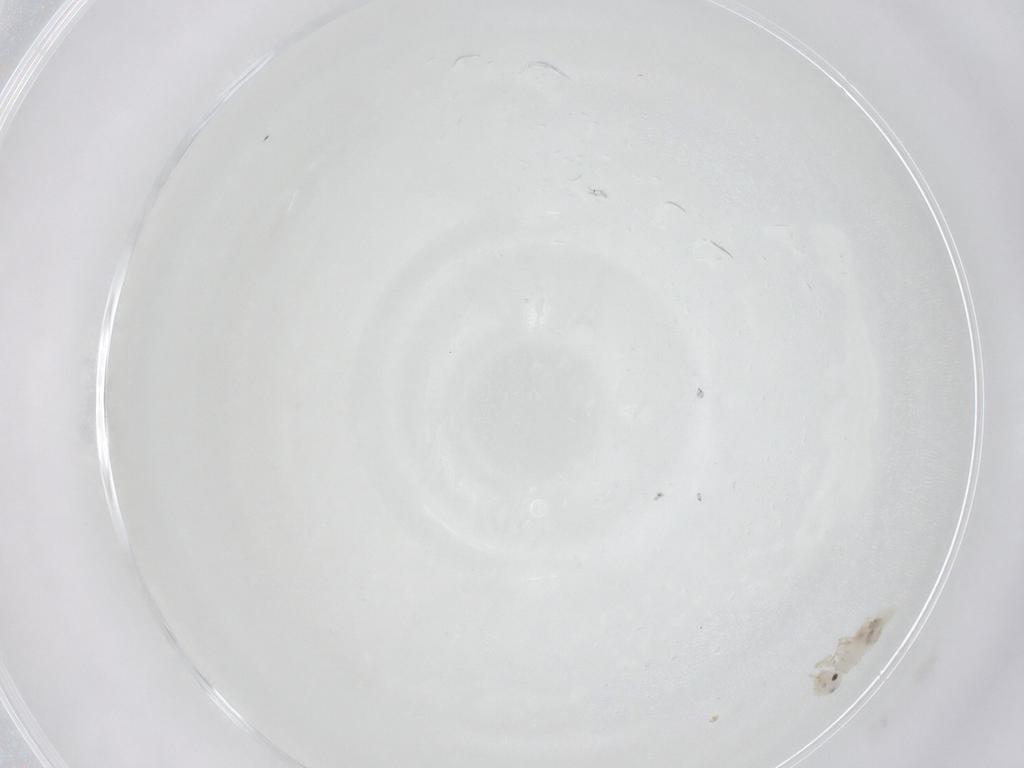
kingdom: Animalia
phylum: Arthropoda
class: Insecta
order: Psocodea
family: Caeciliusidae
